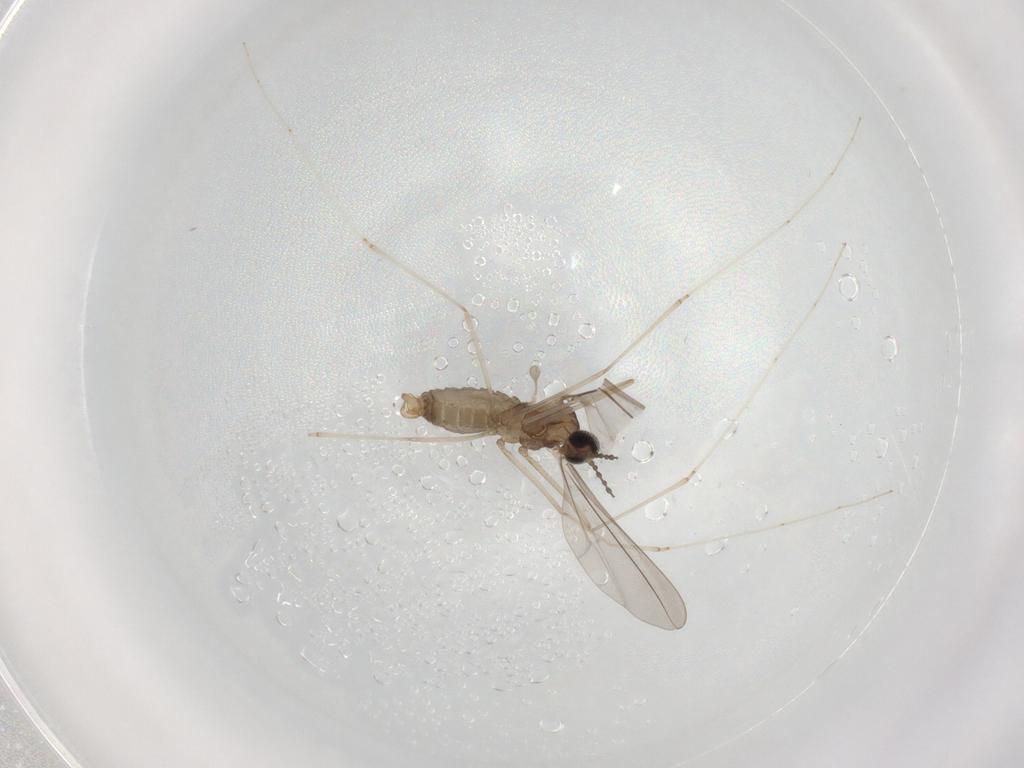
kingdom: Animalia
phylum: Arthropoda
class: Insecta
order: Diptera
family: Cecidomyiidae
